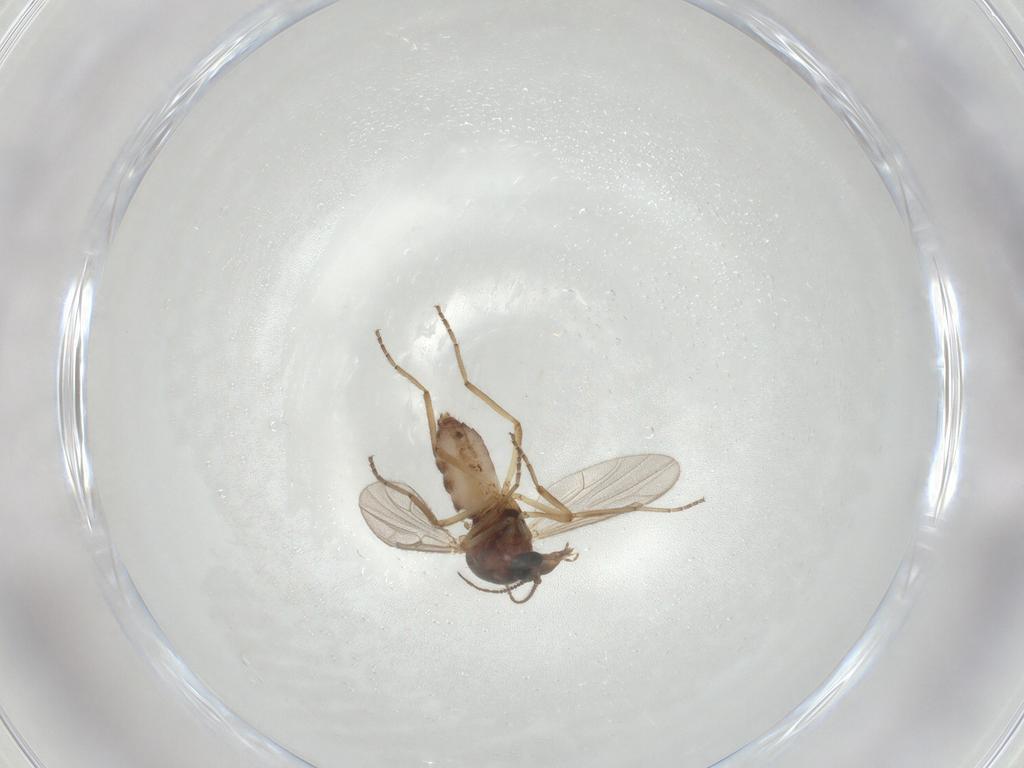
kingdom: Animalia
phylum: Arthropoda
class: Insecta
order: Diptera
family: Ceratopogonidae
